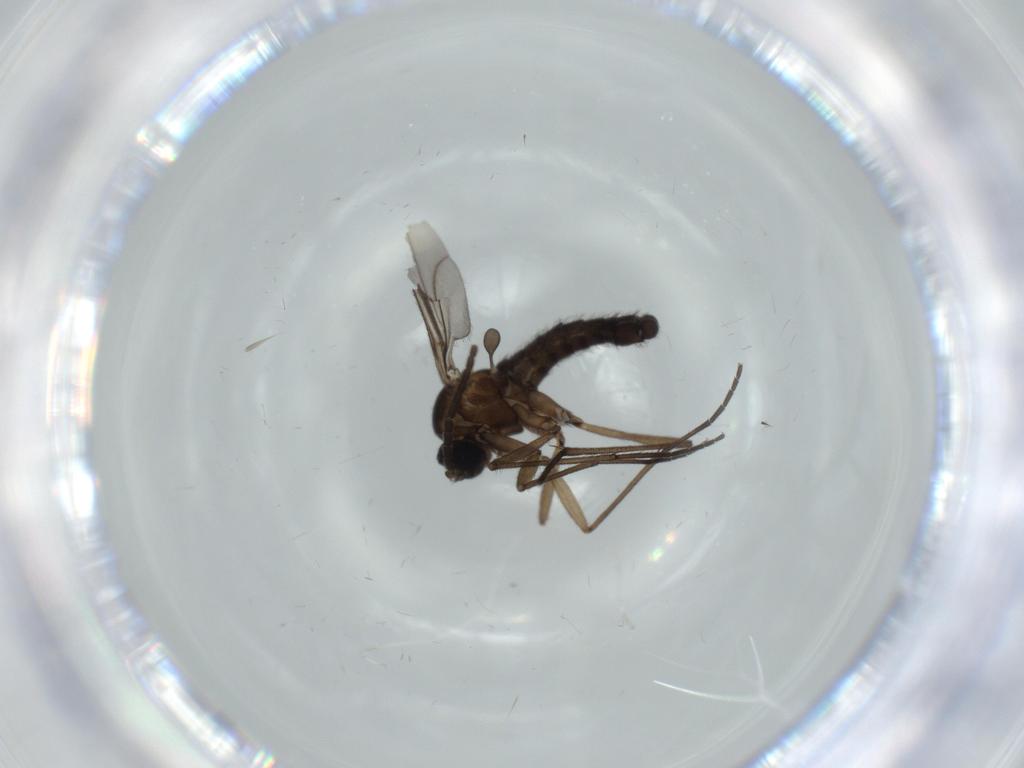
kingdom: Animalia
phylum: Arthropoda
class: Insecta
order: Diptera
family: Sciaridae
